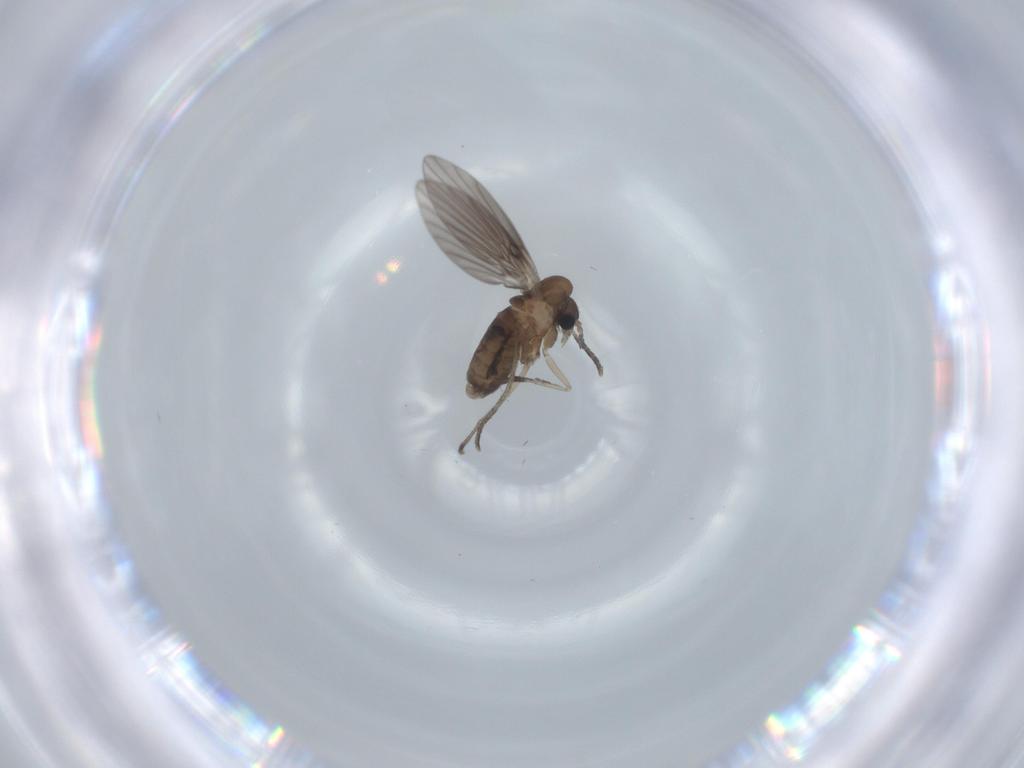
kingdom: Animalia
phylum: Arthropoda
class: Insecta
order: Diptera
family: Psychodidae
